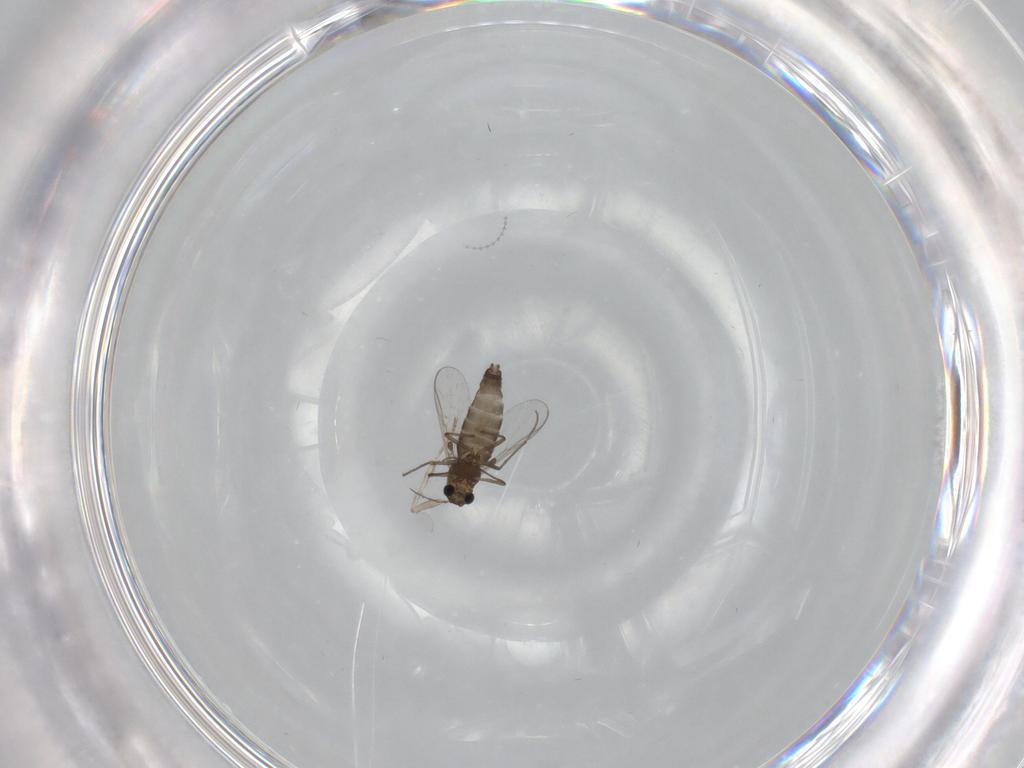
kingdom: Animalia
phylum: Arthropoda
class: Insecta
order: Diptera
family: Chironomidae
